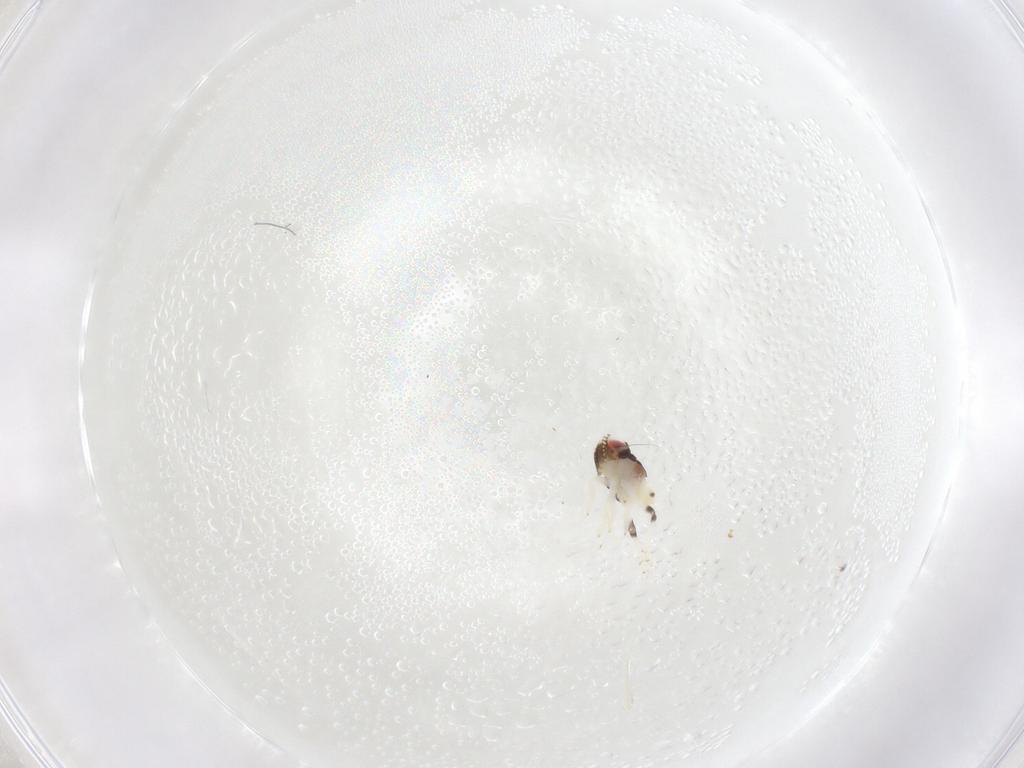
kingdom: Animalia
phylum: Arthropoda
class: Insecta
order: Hemiptera
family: Nogodinidae
